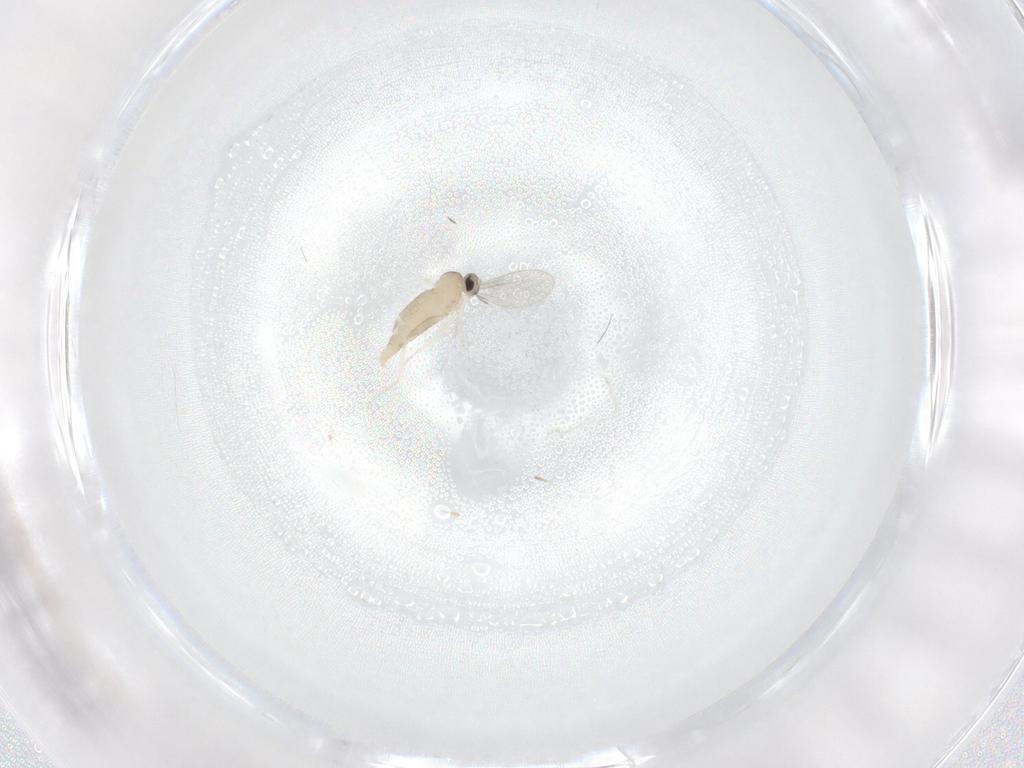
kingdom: Animalia
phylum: Arthropoda
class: Insecta
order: Diptera
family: Cecidomyiidae
